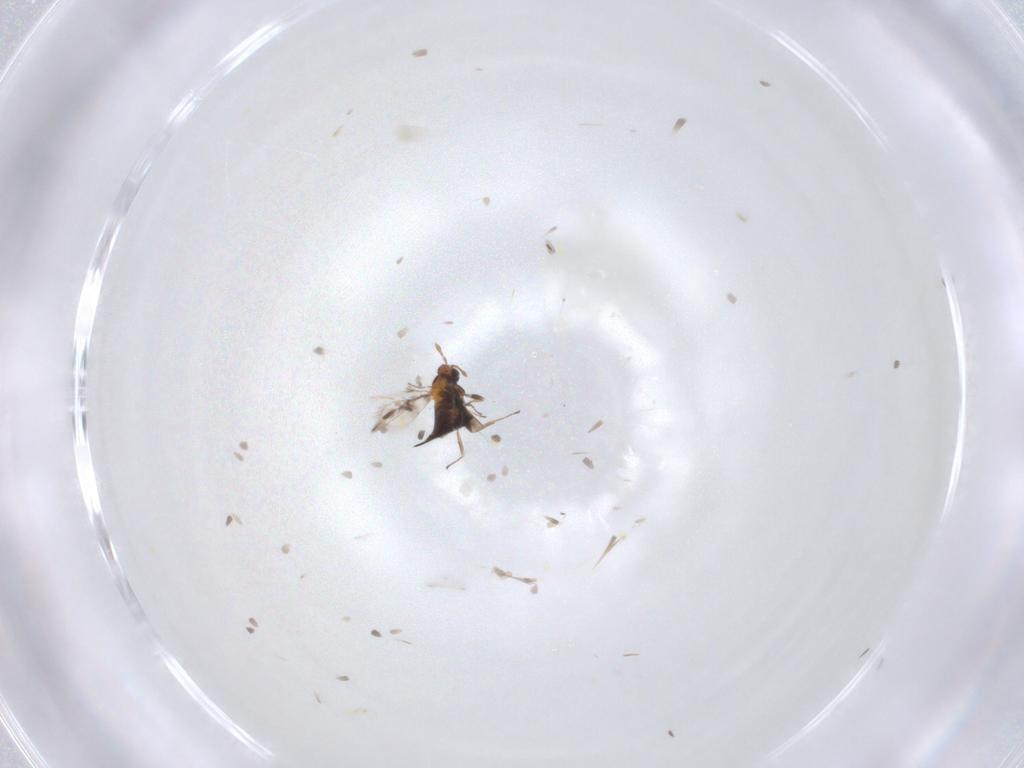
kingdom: Animalia
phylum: Arthropoda
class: Insecta
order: Hymenoptera
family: Trichogrammatidae
